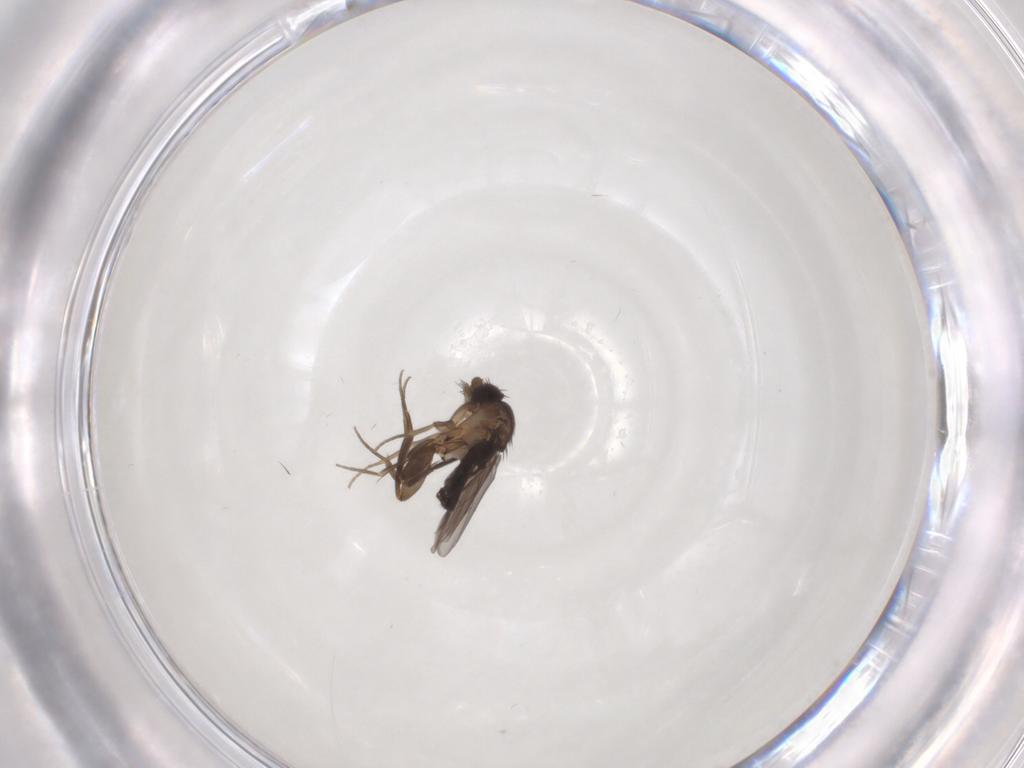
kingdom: Animalia
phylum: Arthropoda
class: Insecta
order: Diptera
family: Phoridae
